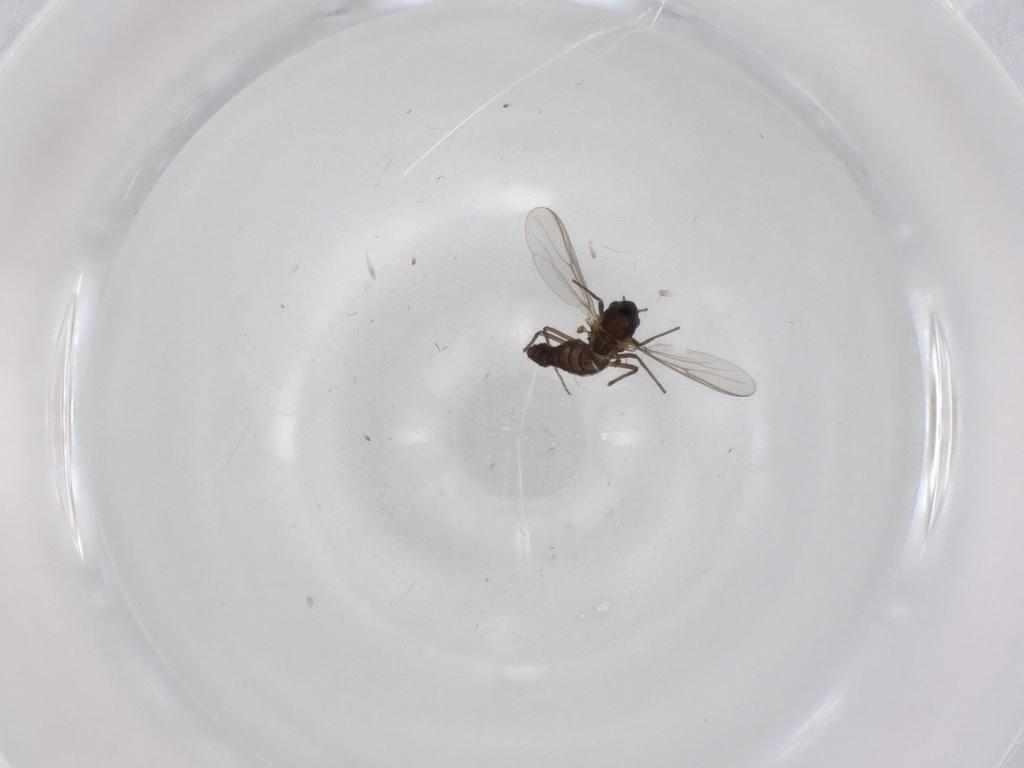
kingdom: Animalia
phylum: Arthropoda
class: Insecta
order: Diptera
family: Chironomidae
